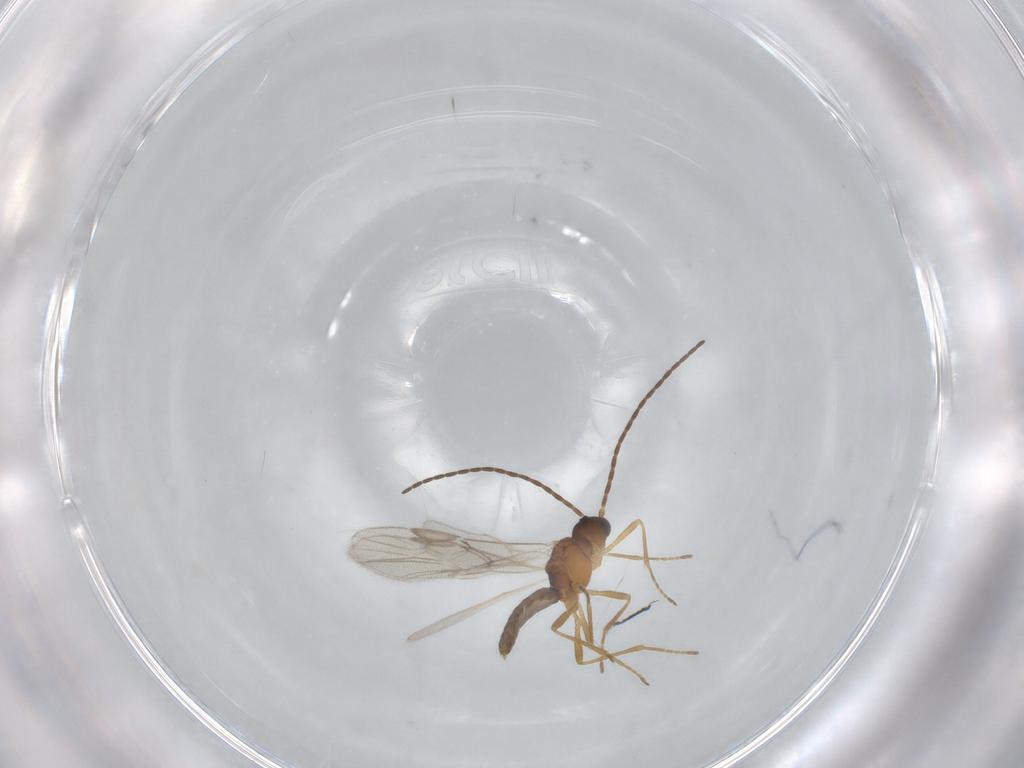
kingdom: Animalia
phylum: Arthropoda
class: Insecta
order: Hymenoptera
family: Braconidae
